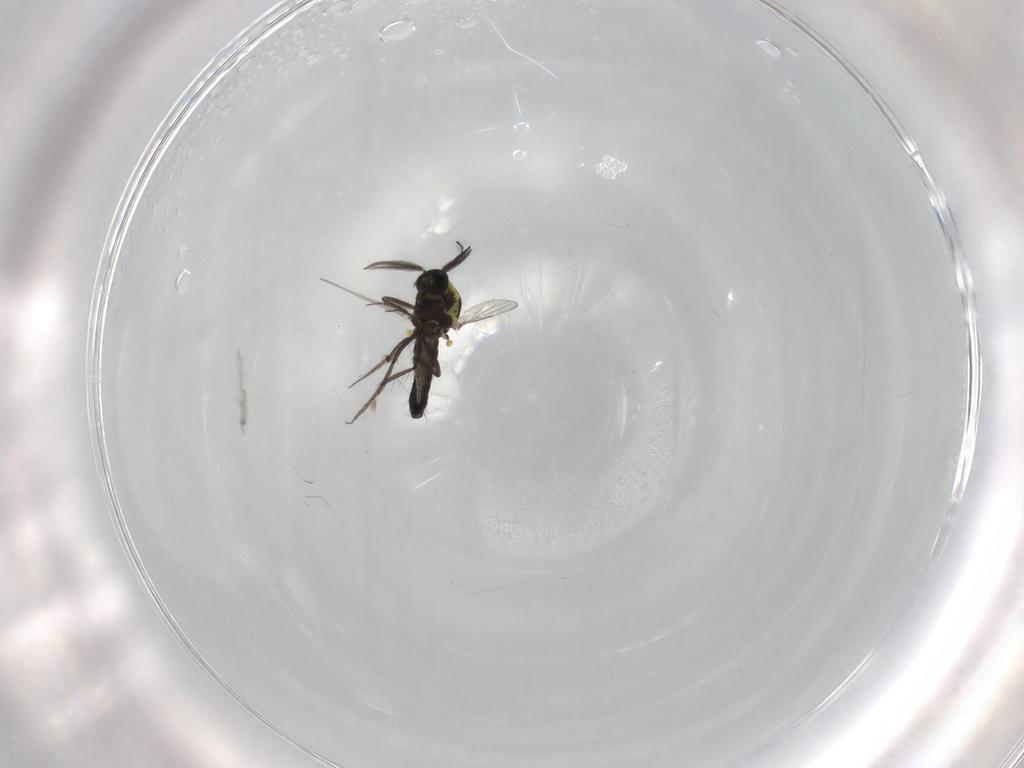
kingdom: Animalia
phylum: Arthropoda
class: Insecta
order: Diptera
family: Ceratopogonidae
